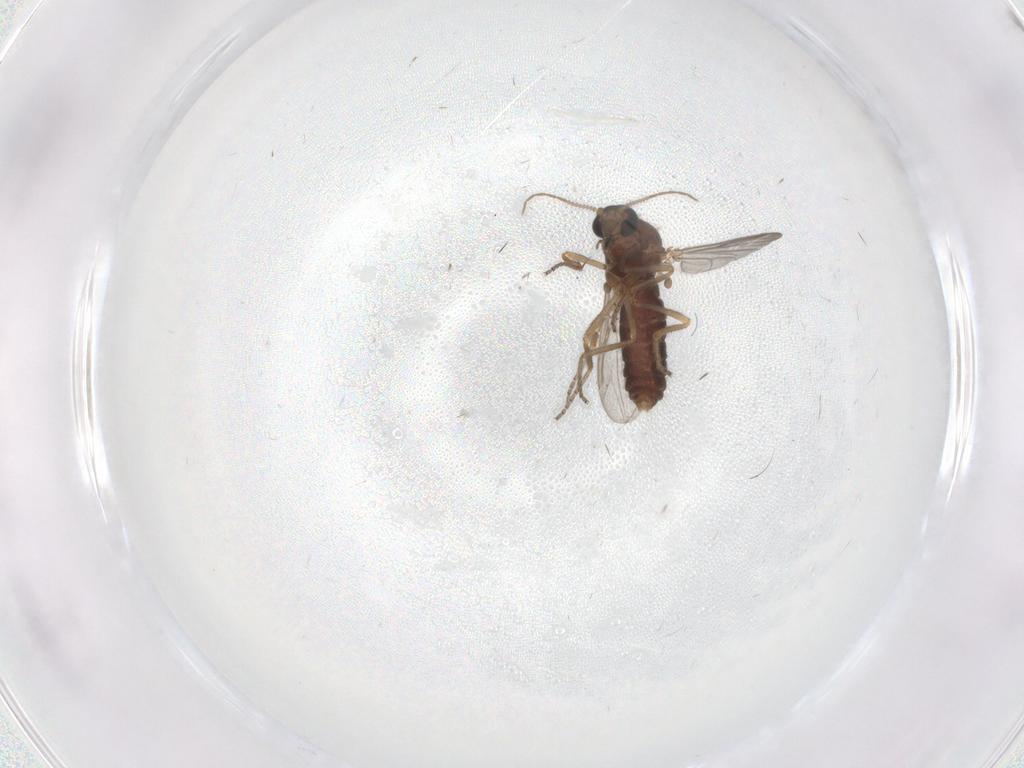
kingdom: Animalia
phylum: Arthropoda
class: Insecta
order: Diptera
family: Ceratopogonidae
